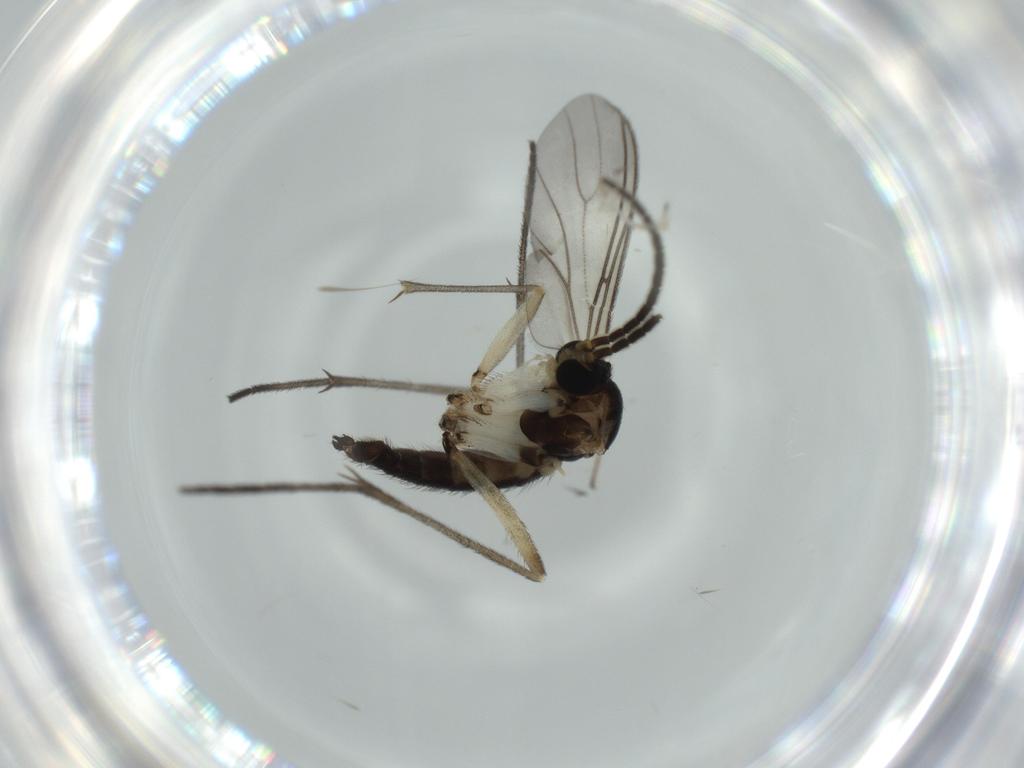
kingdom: Animalia
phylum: Arthropoda
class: Insecta
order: Diptera
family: Sciaridae
